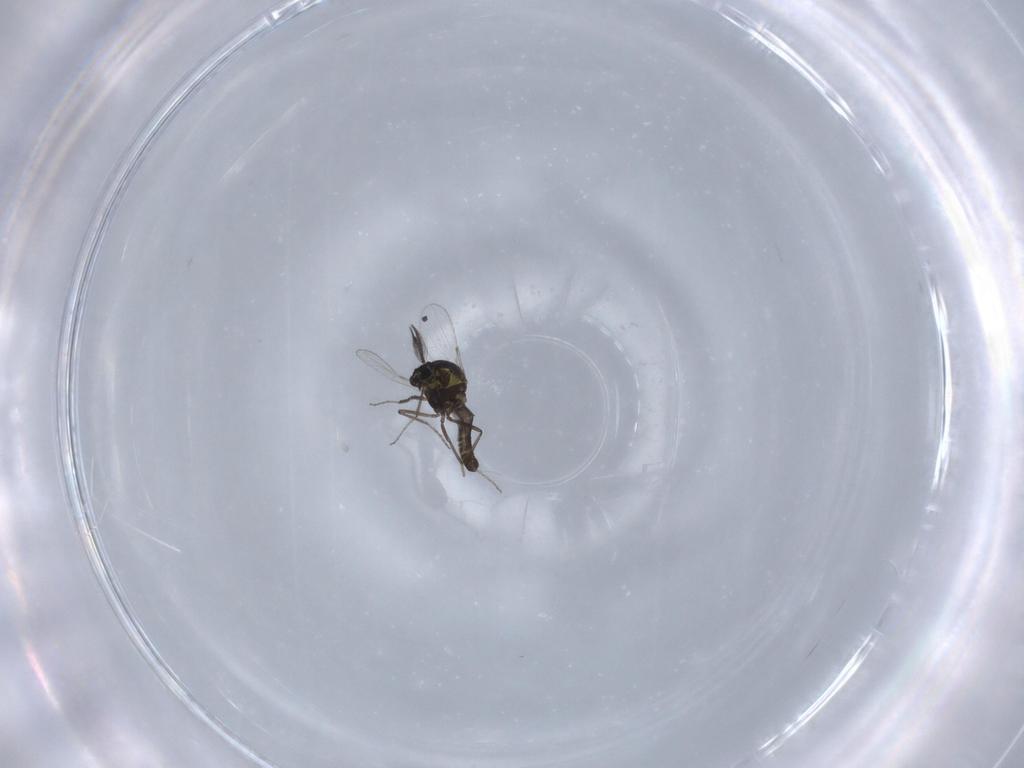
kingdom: Animalia
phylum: Arthropoda
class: Insecta
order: Diptera
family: Ceratopogonidae
